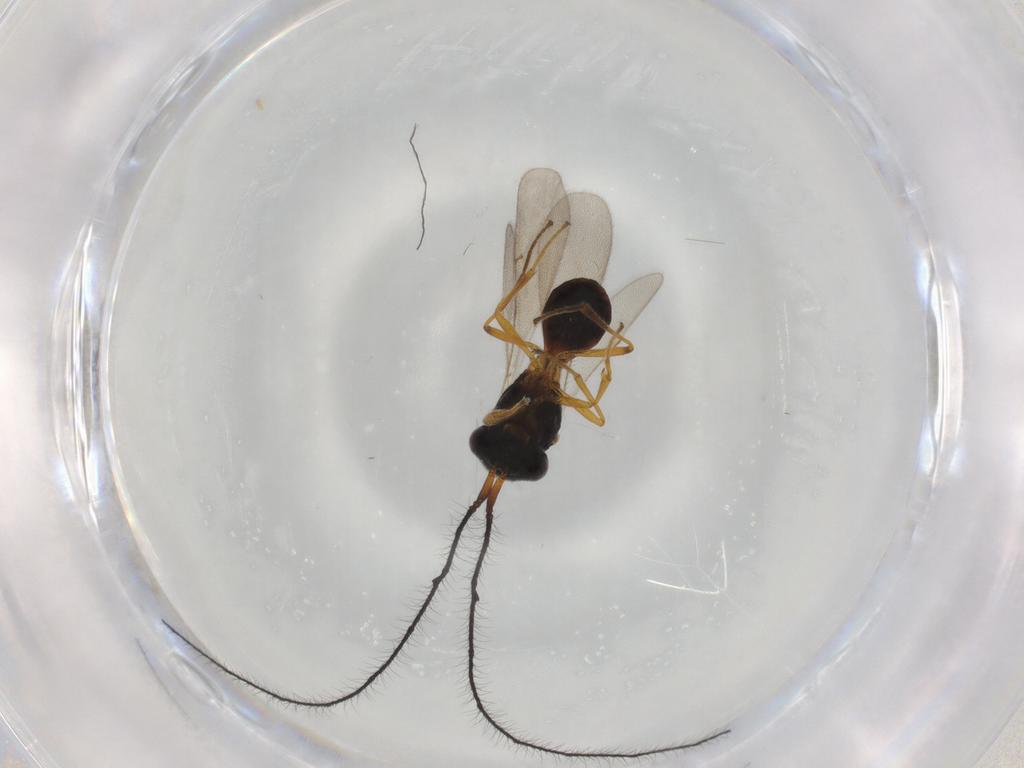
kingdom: Animalia
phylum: Arthropoda
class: Insecta
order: Hymenoptera
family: Scelionidae
